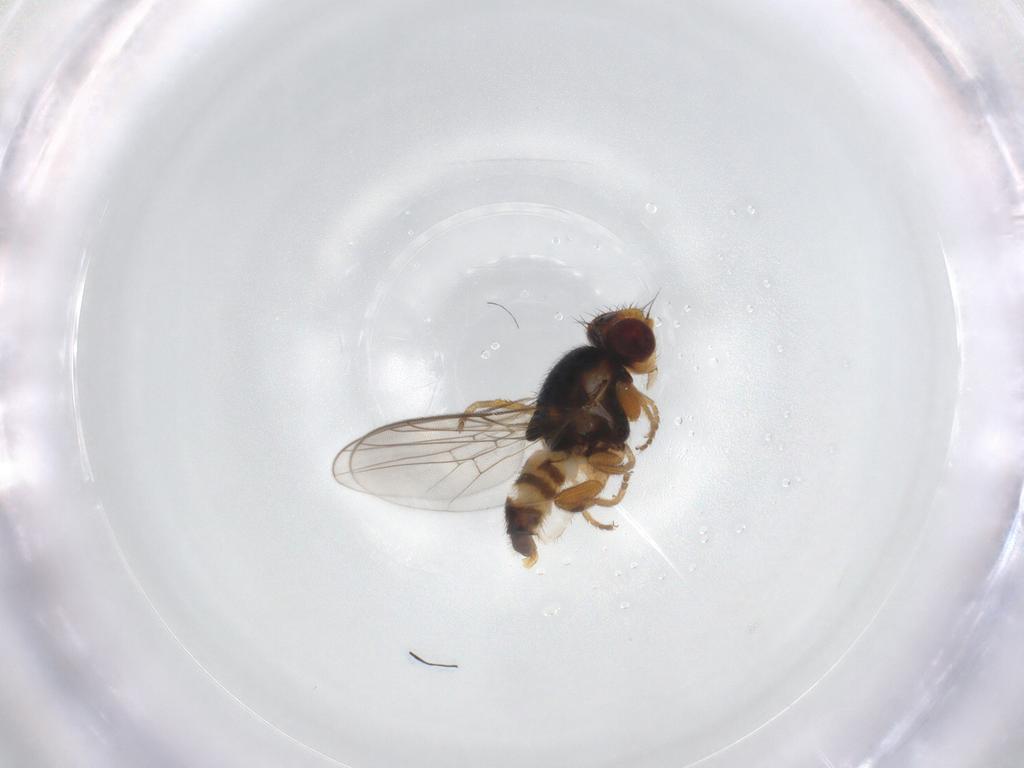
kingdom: Animalia
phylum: Arthropoda
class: Insecta
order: Diptera
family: Chloropidae
